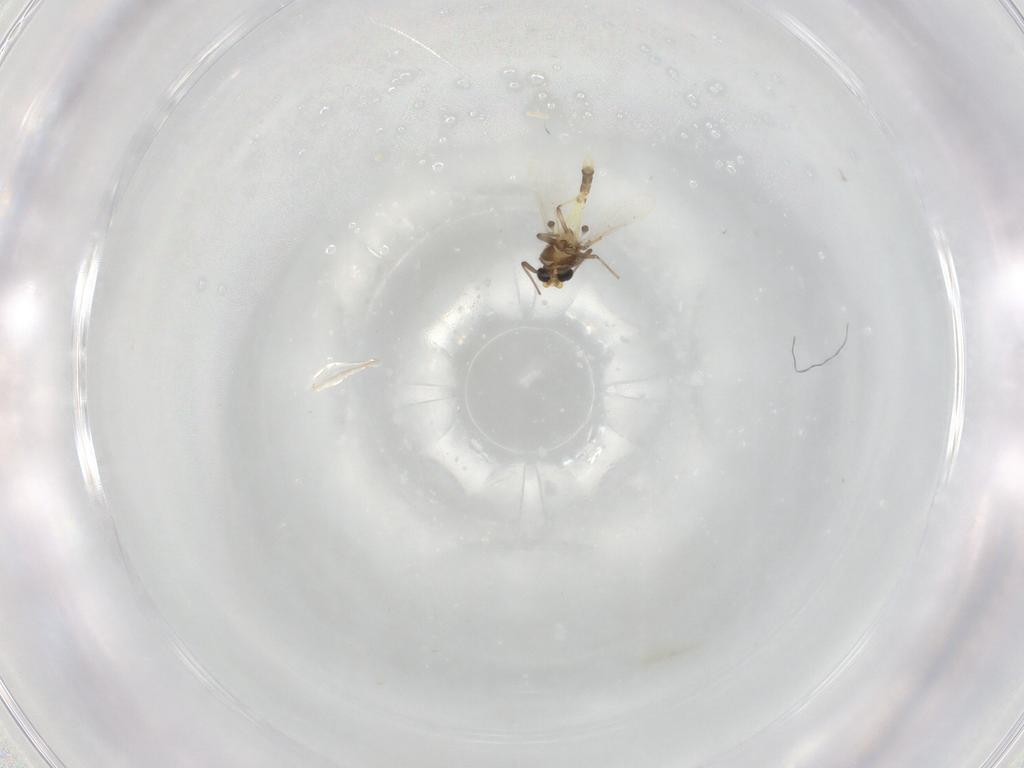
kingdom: Animalia
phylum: Arthropoda
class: Insecta
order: Diptera
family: Chironomidae
